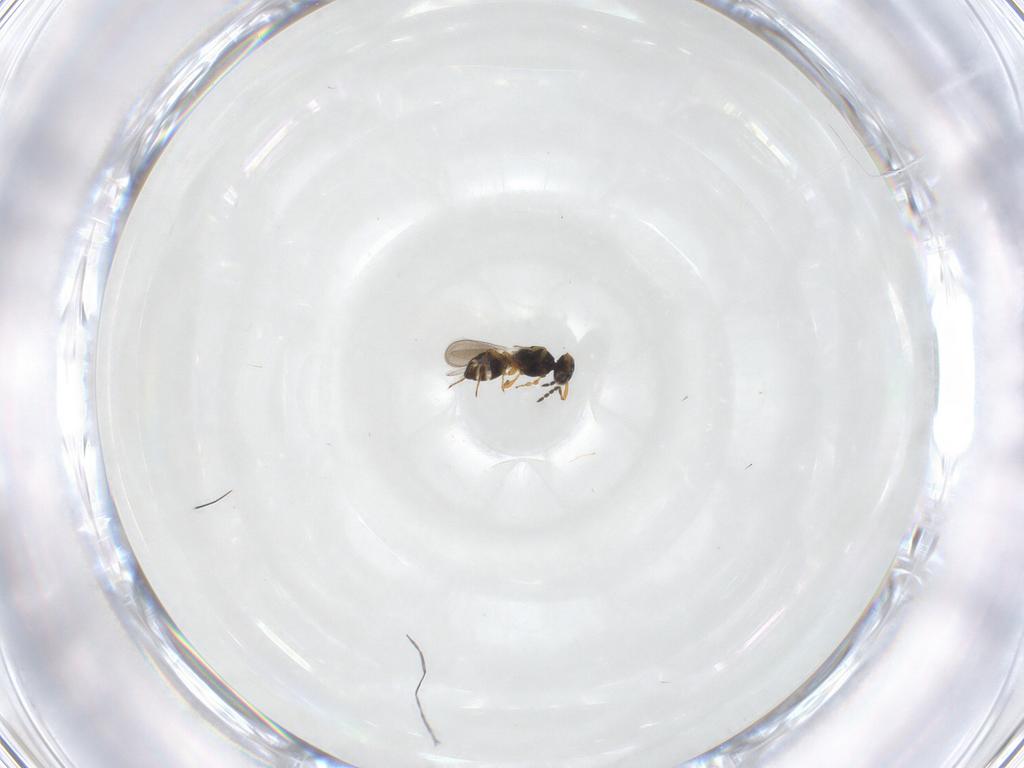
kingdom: Animalia
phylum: Arthropoda
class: Insecta
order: Hymenoptera
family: Platygastridae
